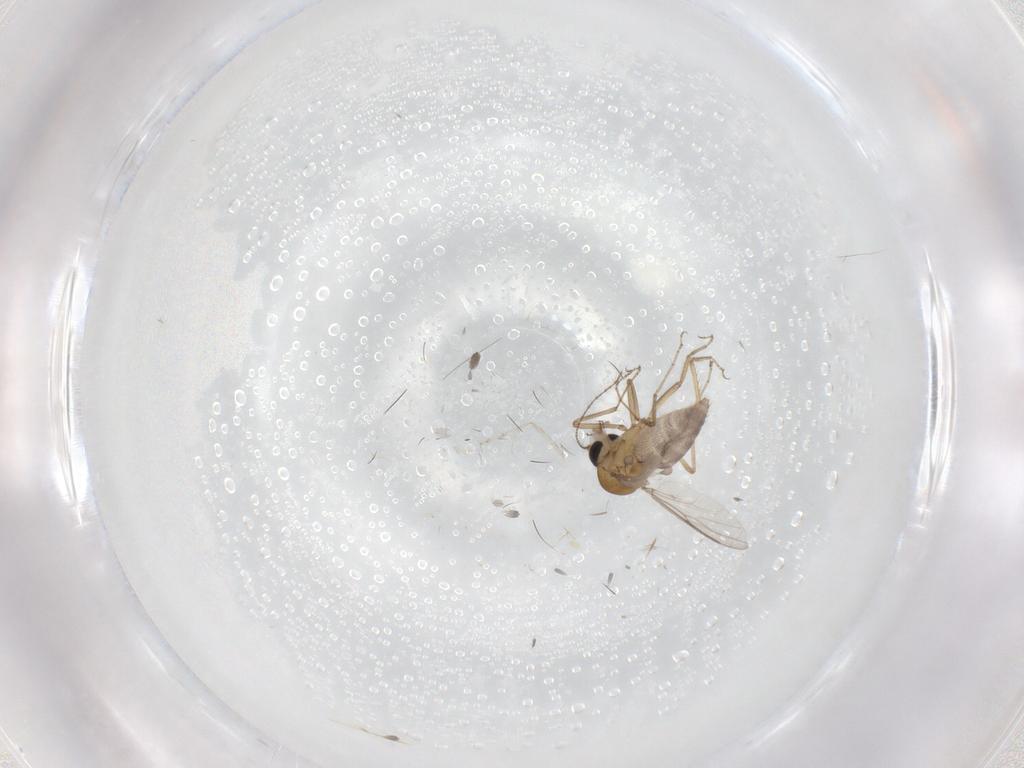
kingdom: Animalia
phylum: Arthropoda
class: Insecta
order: Diptera
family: Ceratopogonidae
